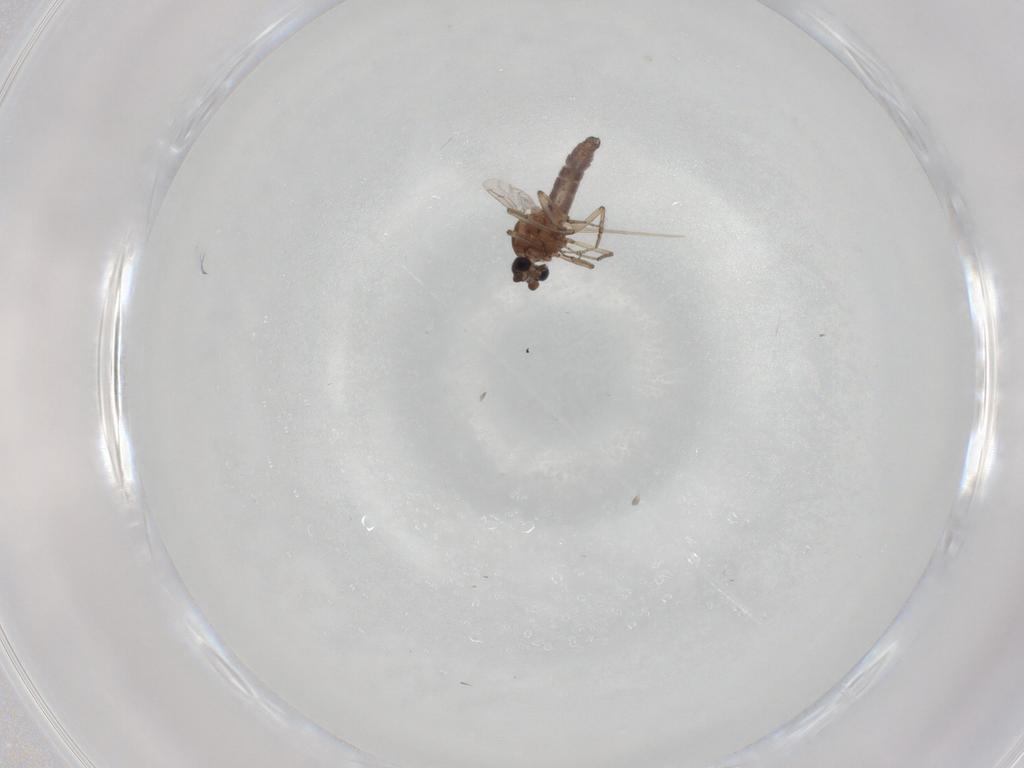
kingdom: Animalia
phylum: Arthropoda
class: Insecta
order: Diptera
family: Ceratopogonidae
